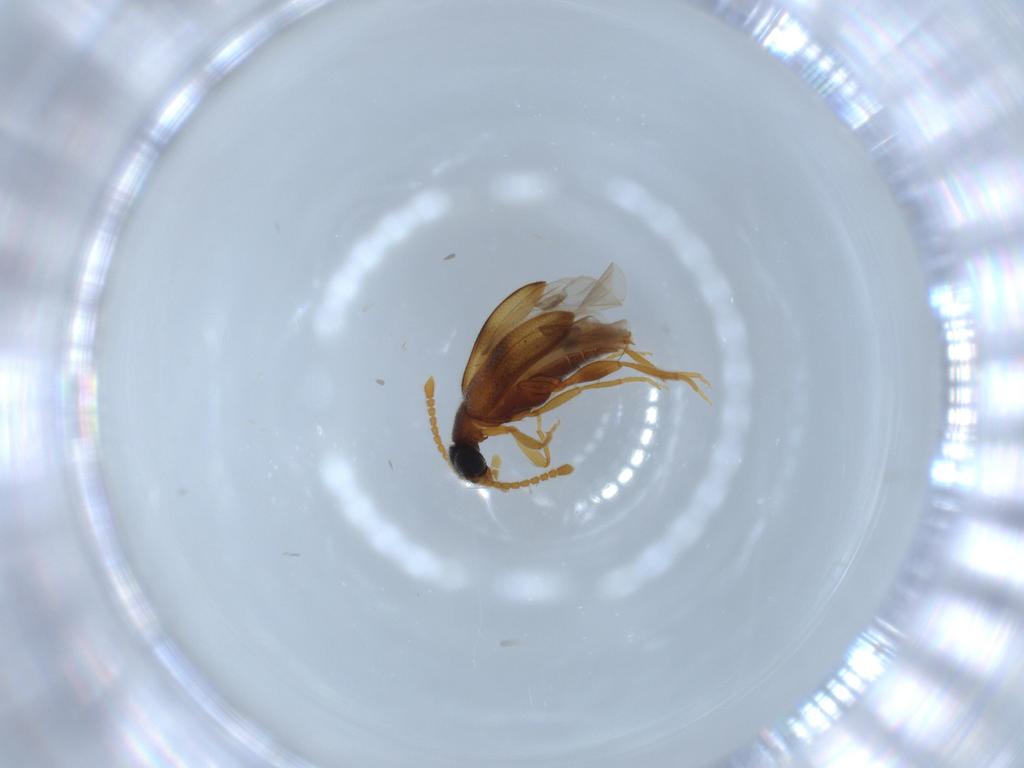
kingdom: Animalia
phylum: Arthropoda
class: Insecta
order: Coleoptera
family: Aderidae
